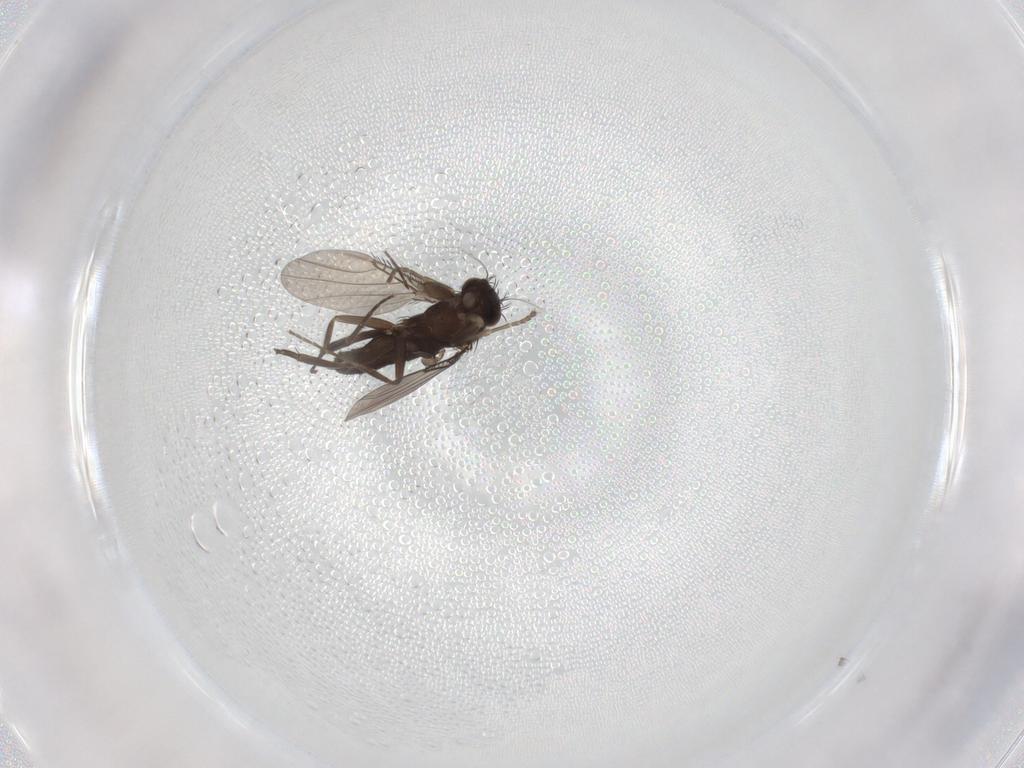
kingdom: Animalia
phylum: Arthropoda
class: Insecta
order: Diptera
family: Phoridae
